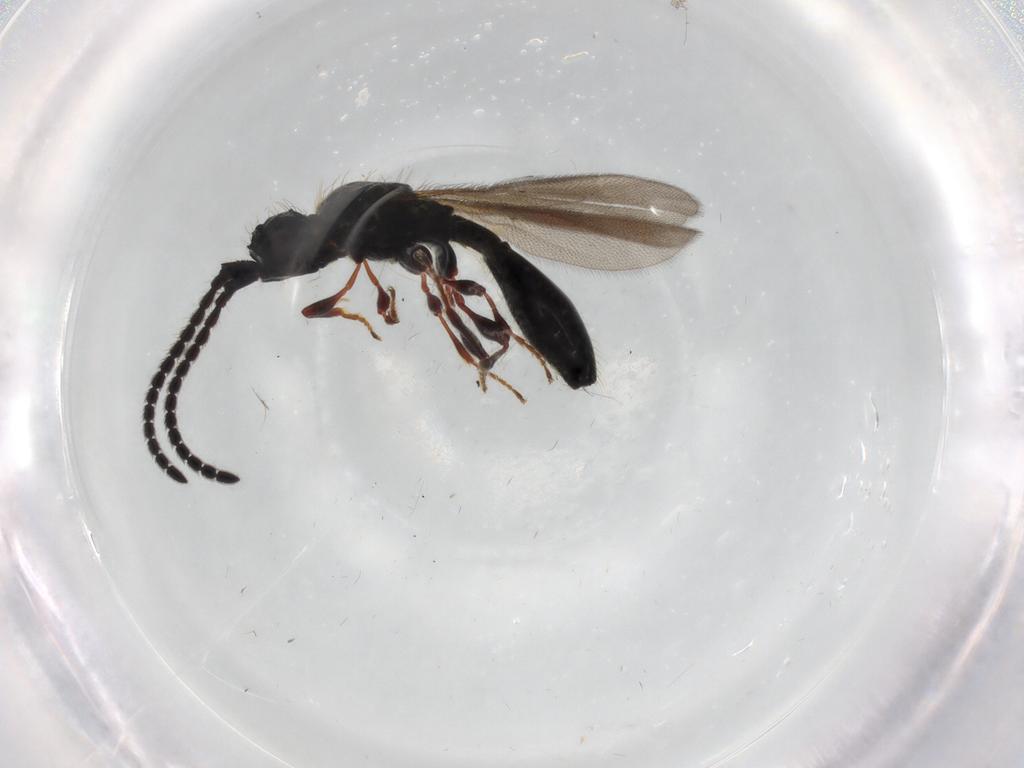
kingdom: Animalia
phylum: Arthropoda
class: Insecta
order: Hymenoptera
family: Diapriidae
